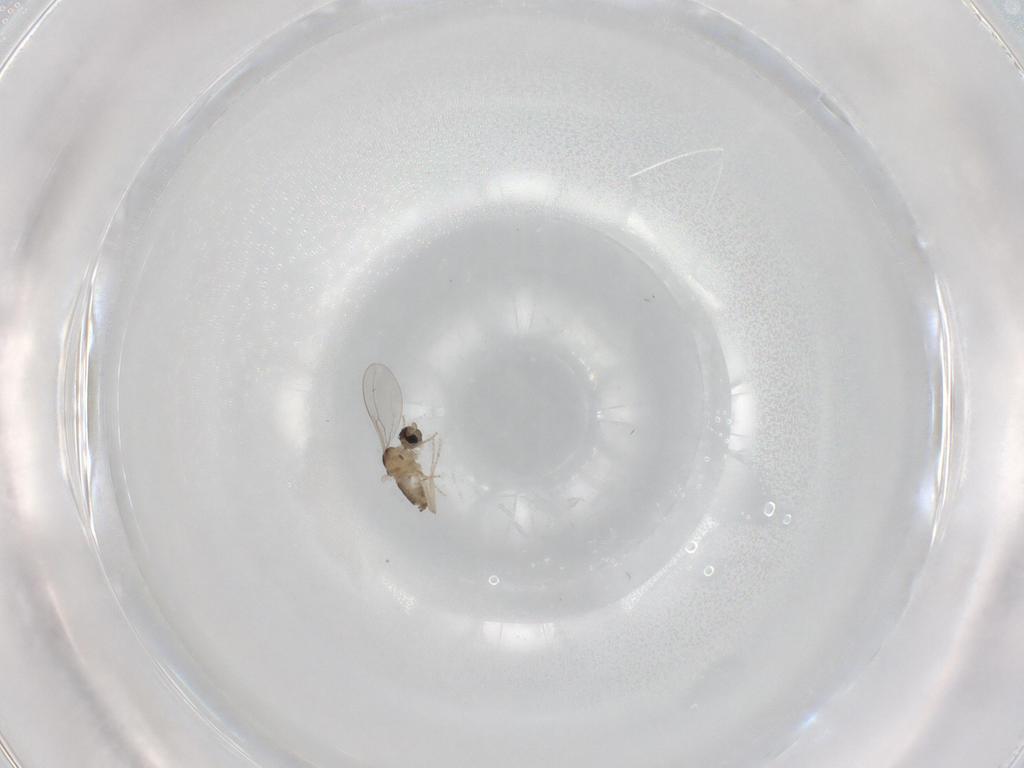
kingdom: Animalia
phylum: Arthropoda
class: Insecta
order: Diptera
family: Cecidomyiidae
